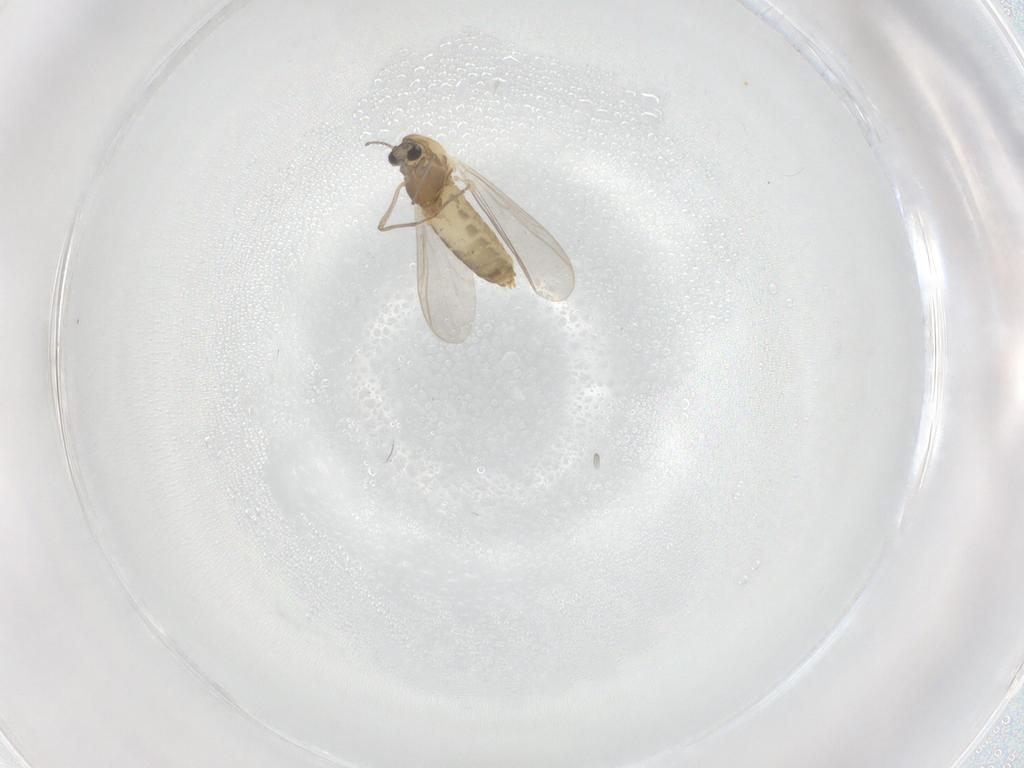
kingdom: Animalia
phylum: Arthropoda
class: Insecta
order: Diptera
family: Chironomidae
